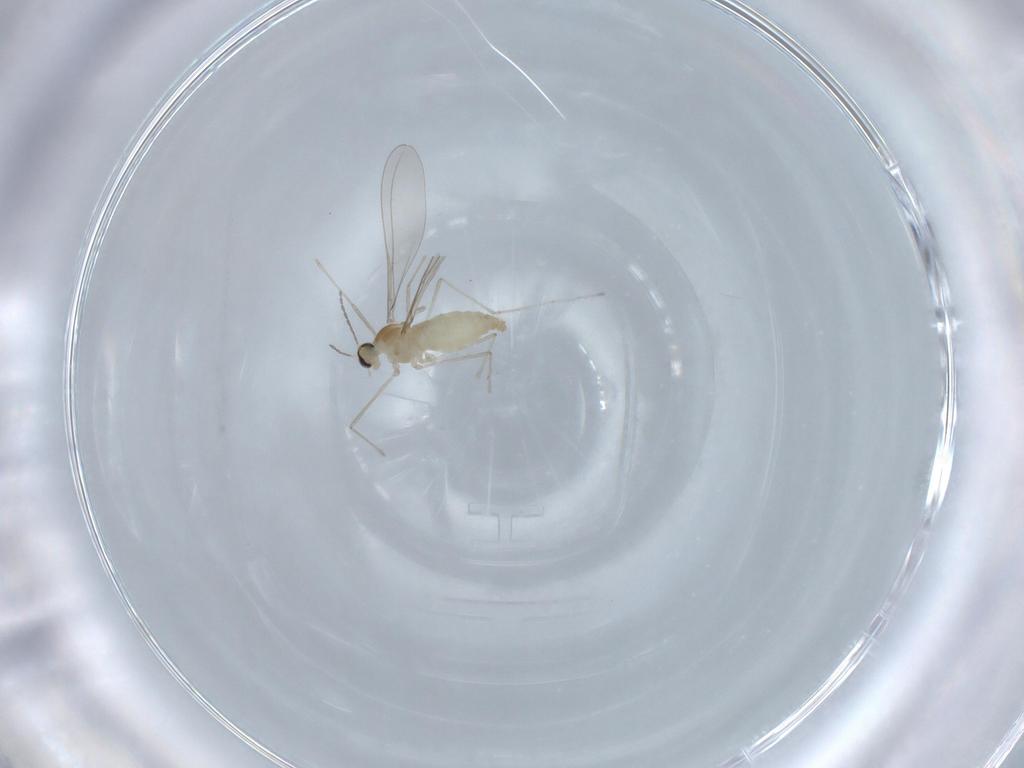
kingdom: Animalia
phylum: Arthropoda
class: Insecta
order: Diptera
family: Cecidomyiidae
